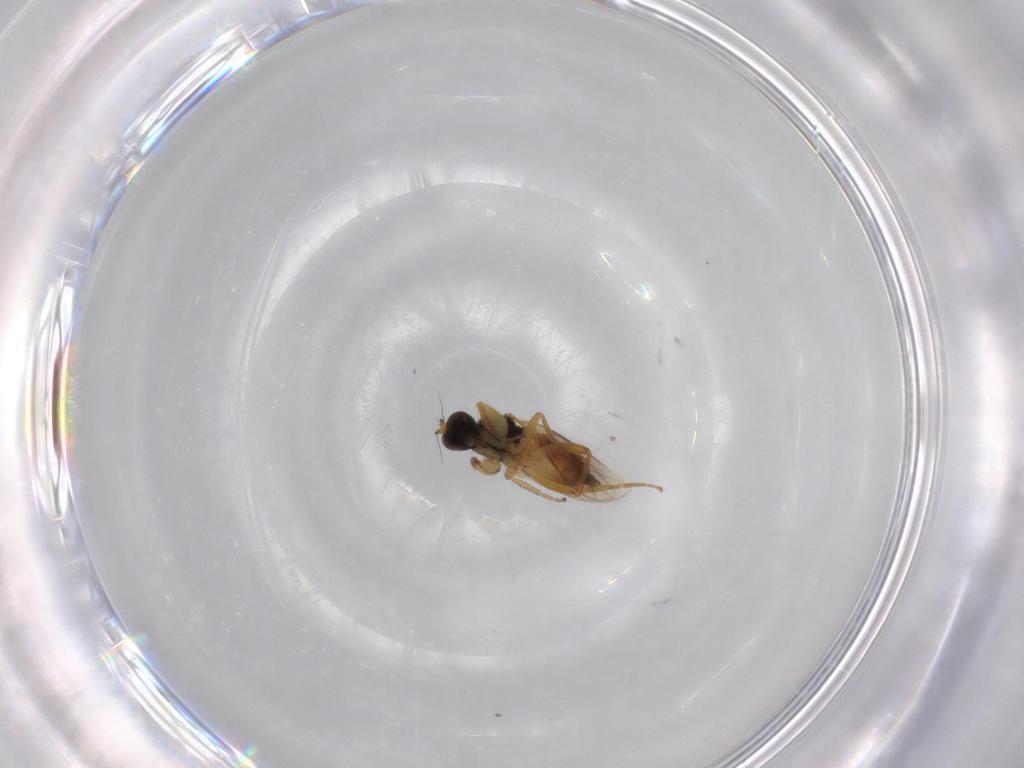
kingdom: Animalia
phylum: Arthropoda
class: Insecta
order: Diptera
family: Hybotidae
